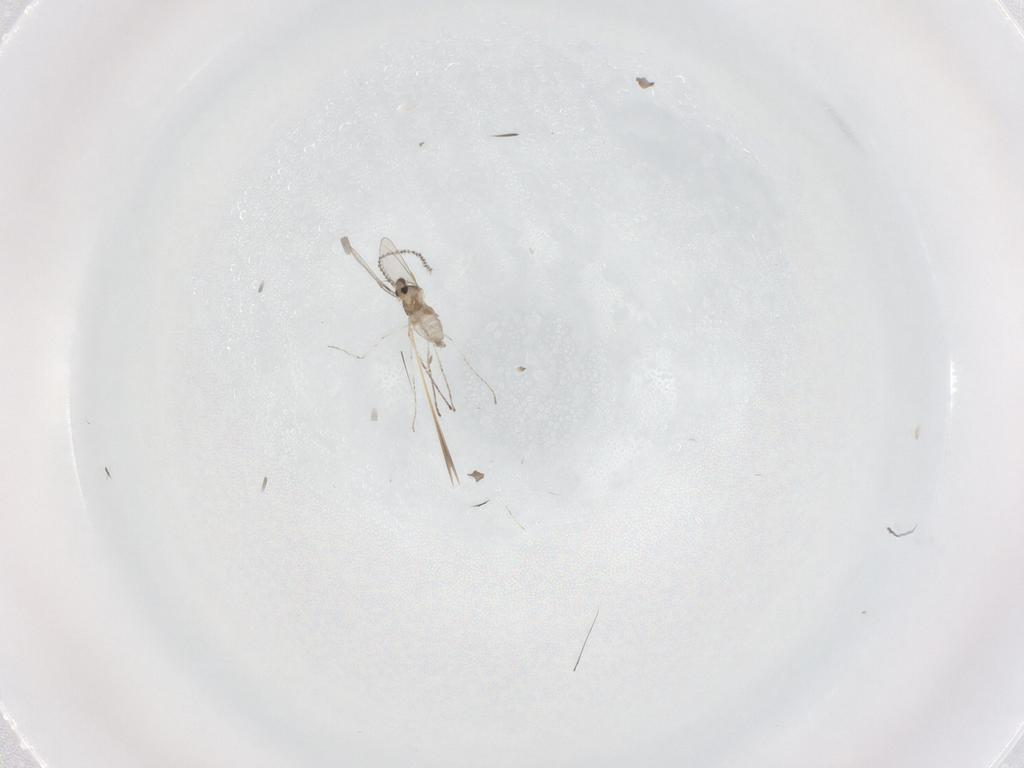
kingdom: Animalia
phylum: Arthropoda
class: Insecta
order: Diptera
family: Cecidomyiidae
